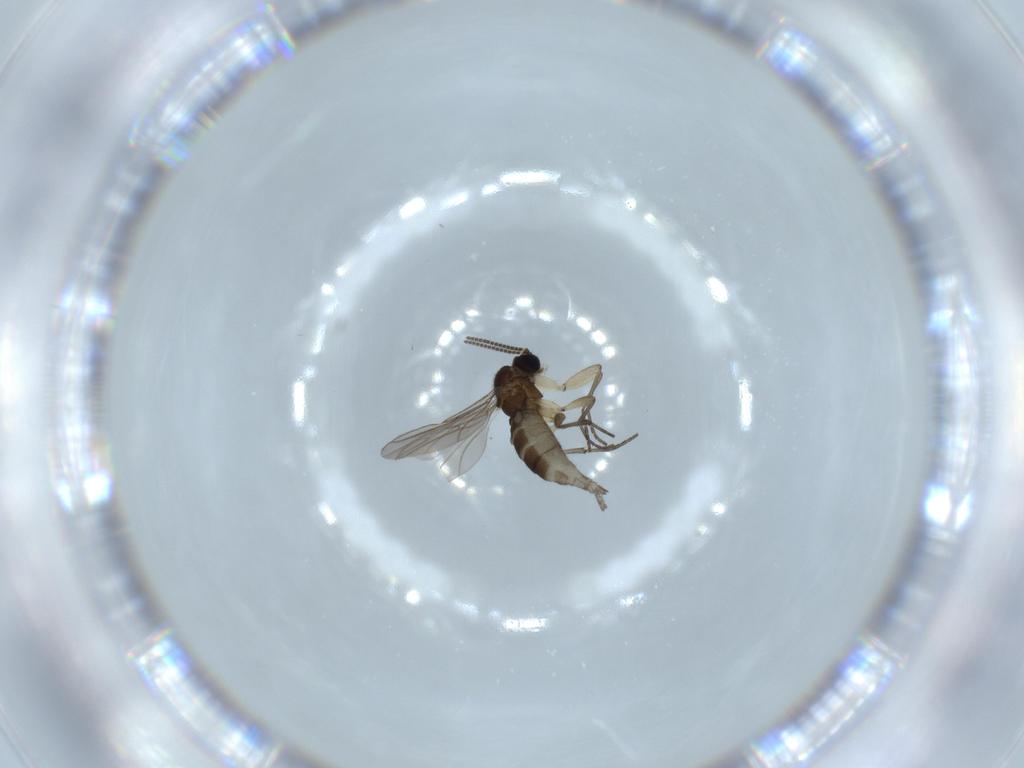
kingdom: Animalia
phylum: Arthropoda
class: Insecta
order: Diptera
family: Sciaridae
